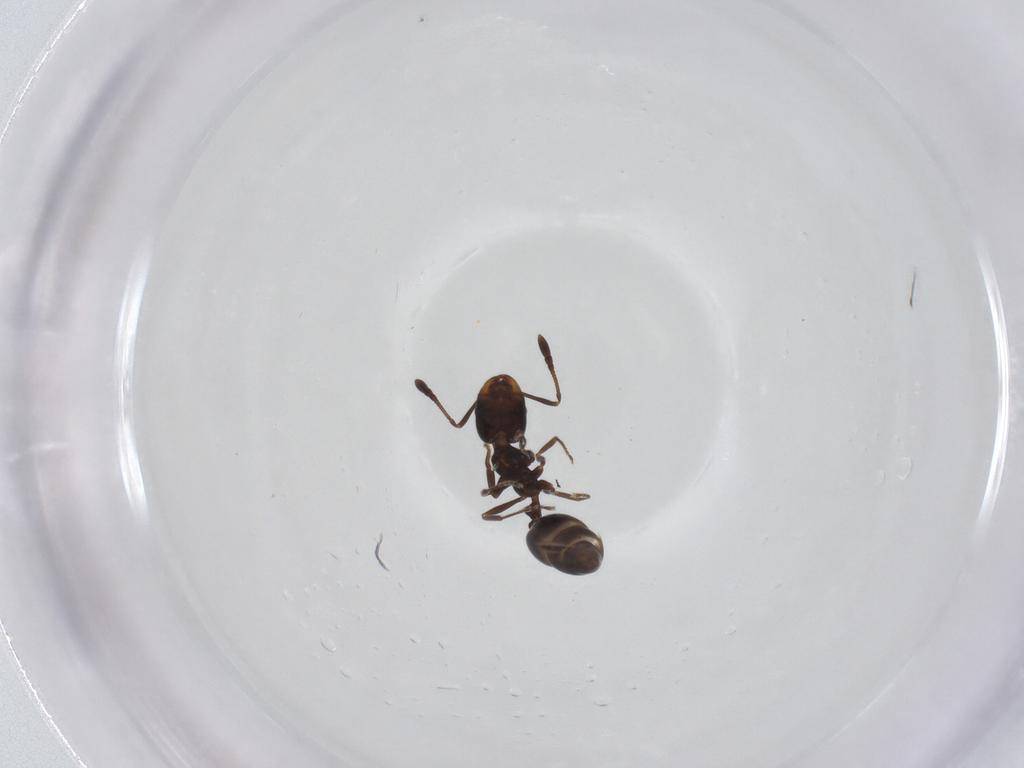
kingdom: Animalia
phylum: Arthropoda
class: Insecta
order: Hymenoptera
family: Formicidae
